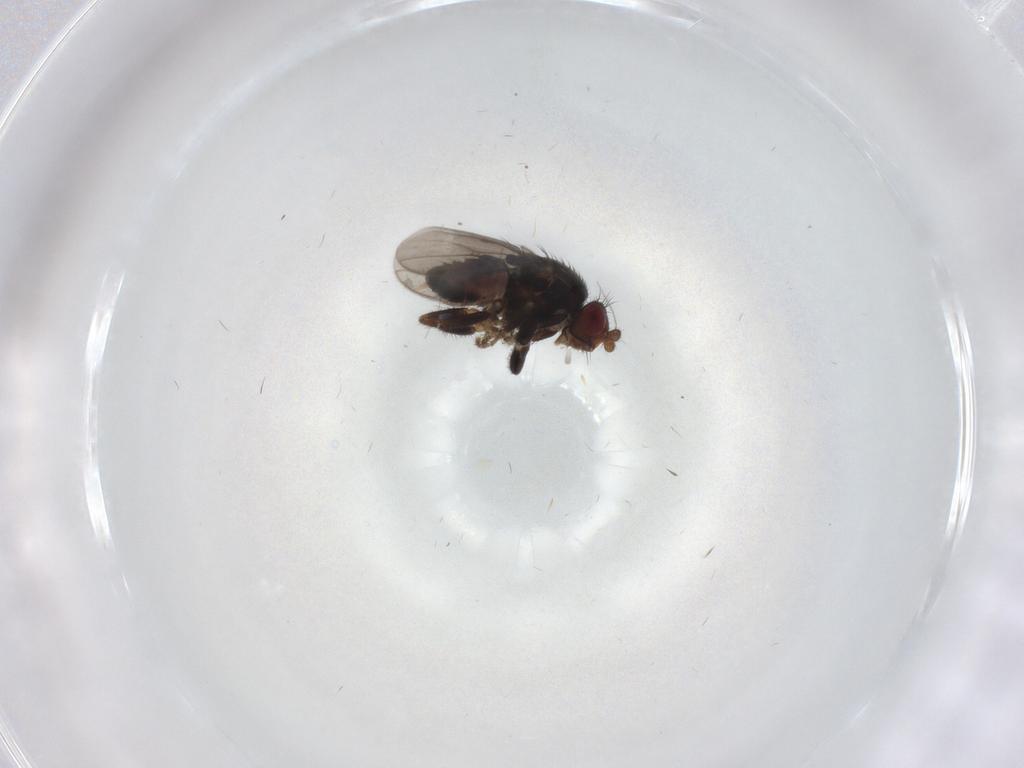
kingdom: Animalia
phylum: Arthropoda
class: Insecta
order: Diptera
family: Sphaeroceridae
